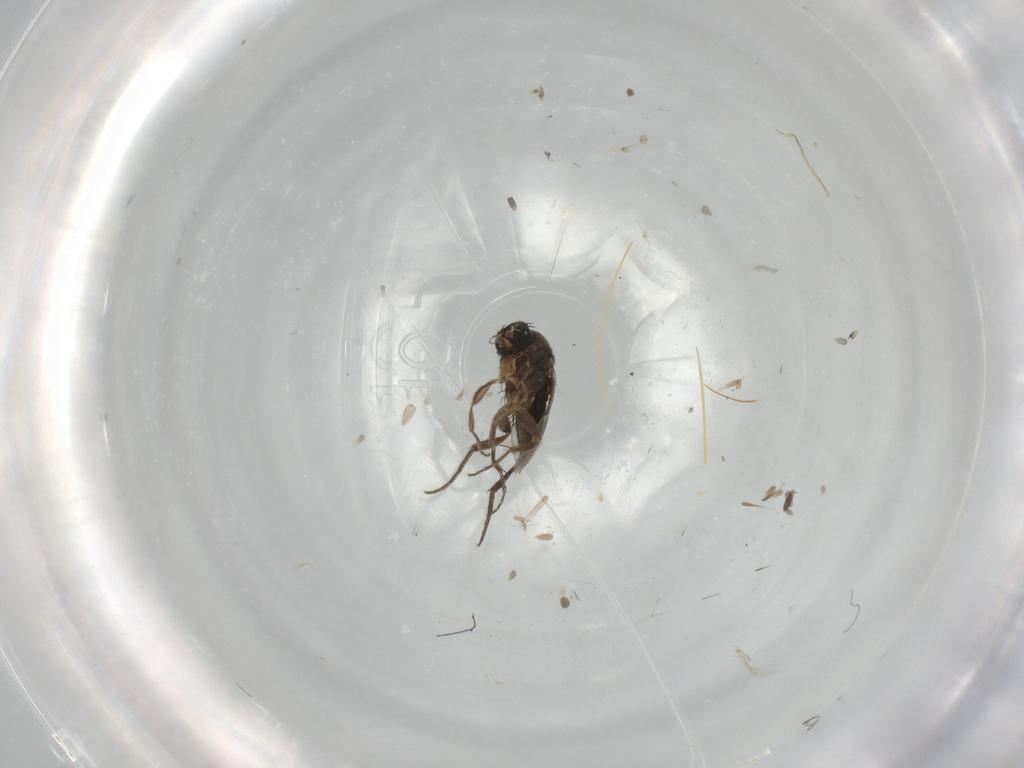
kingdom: Animalia
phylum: Arthropoda
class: Insecta
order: Diptera
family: Phoridae
